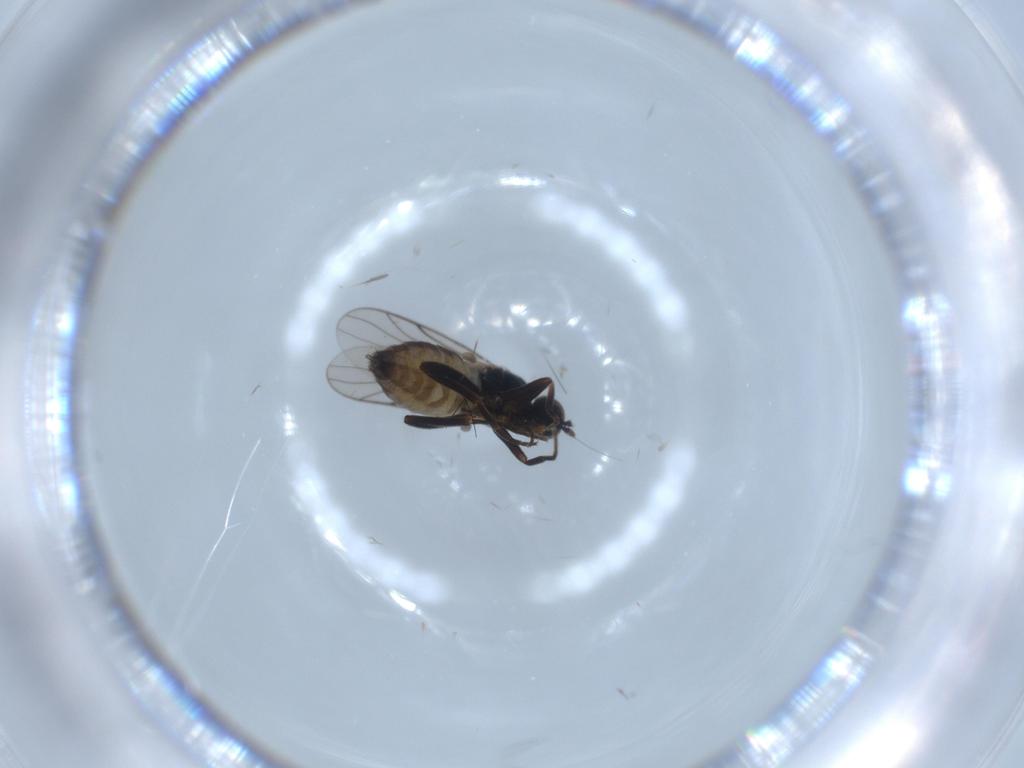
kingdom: Animalia
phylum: Arthropoda
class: Insecta
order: Diptera
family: Hybotidae
